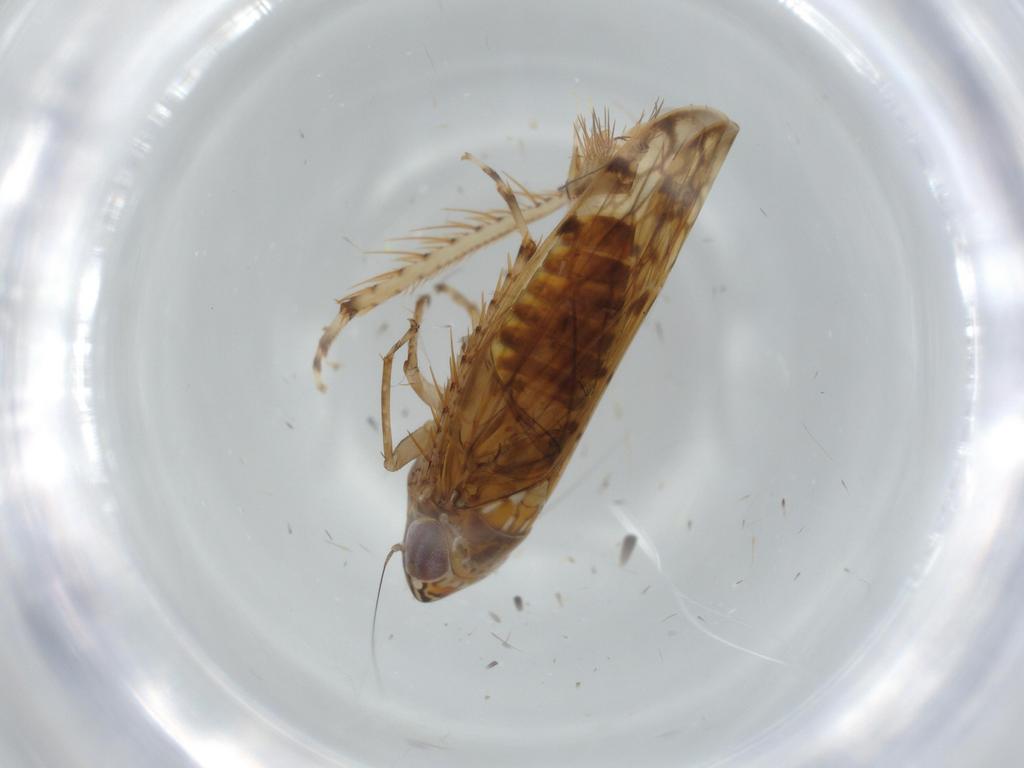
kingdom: Animalia
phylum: Arthropoda
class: Insecta
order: Hemiptera
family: Cicadellidae
